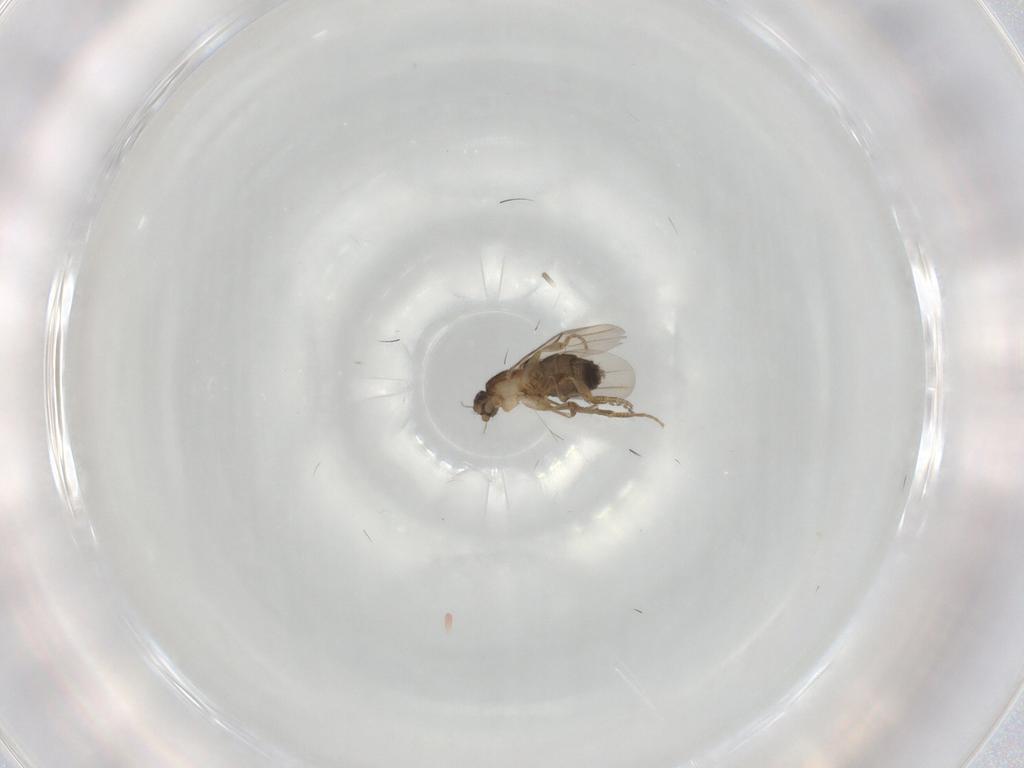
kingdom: Animalia
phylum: Arthropoda
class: Insecta
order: Diptera
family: Phoridae
